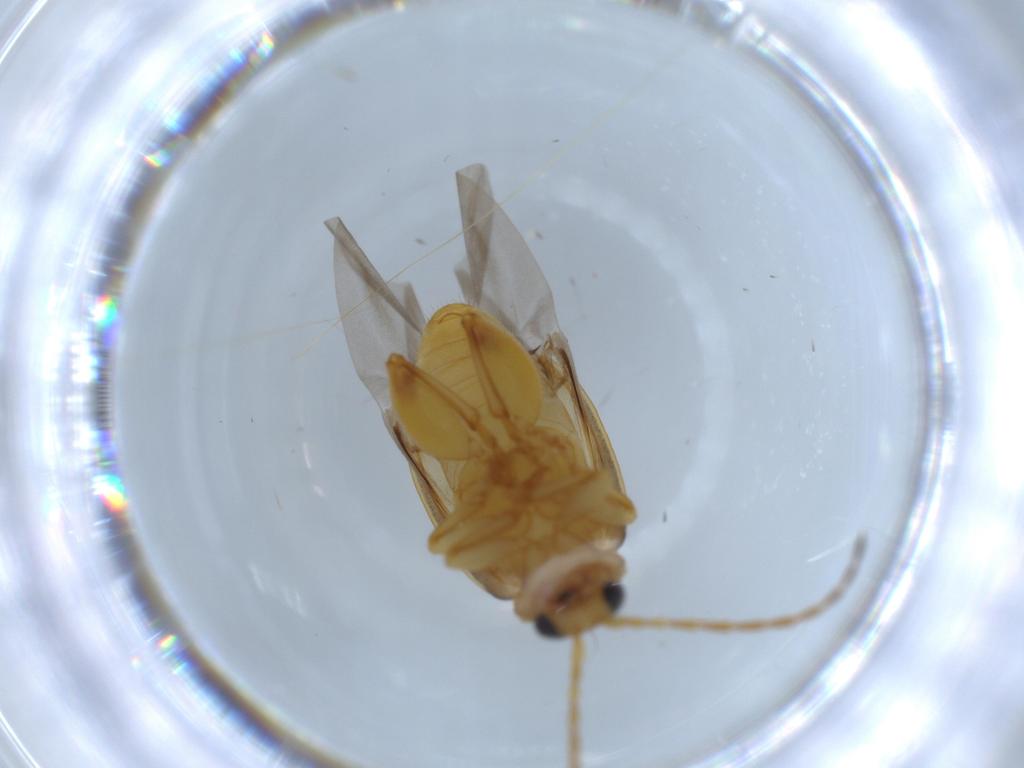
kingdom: Animalia
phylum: Arthropoda
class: Insecta
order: Coleoptera
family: Chrysomelidae
